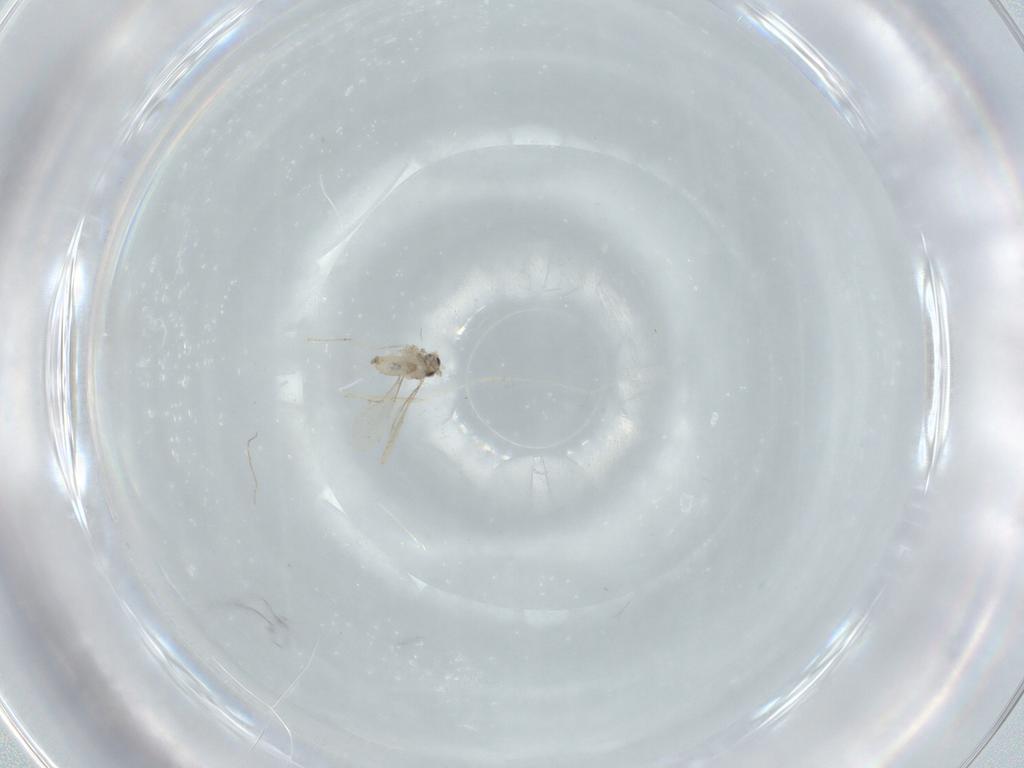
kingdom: Animalia
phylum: Arthropoda
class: Insecta
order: Diptera
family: Cecidomyiidae
